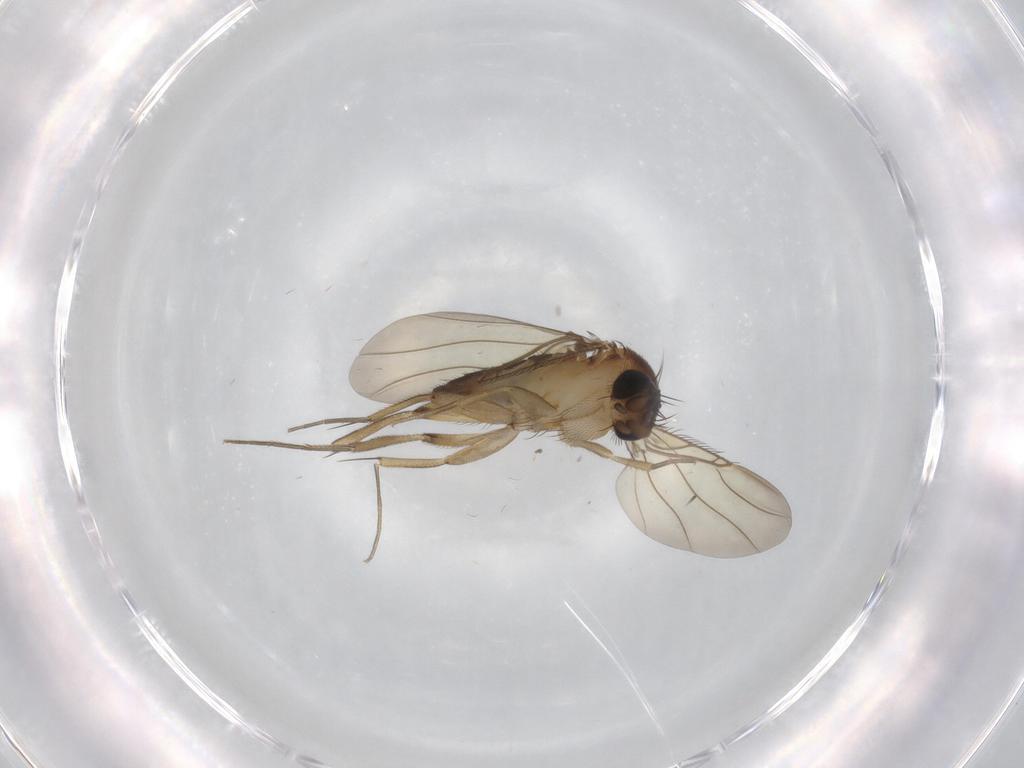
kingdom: Animalia
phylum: Arthropoda
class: Insecta
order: Diptera
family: Phoridae
